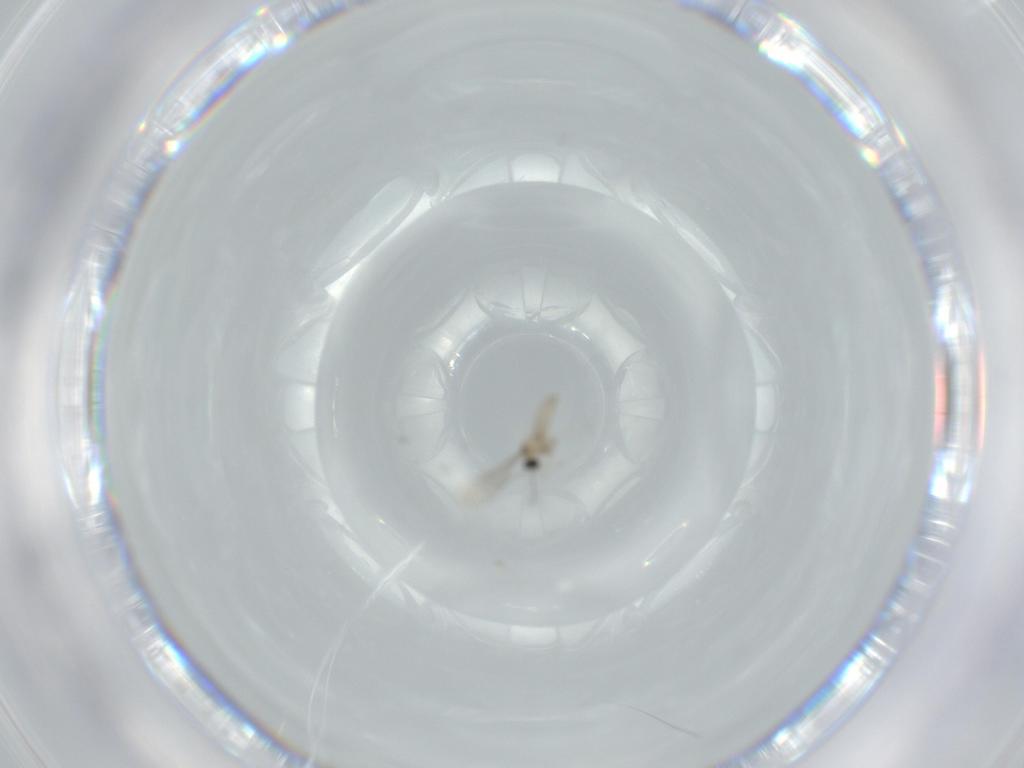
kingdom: Animalia
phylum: Arthropoda
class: Insecta
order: Diptera
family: Cecidomyiidae
